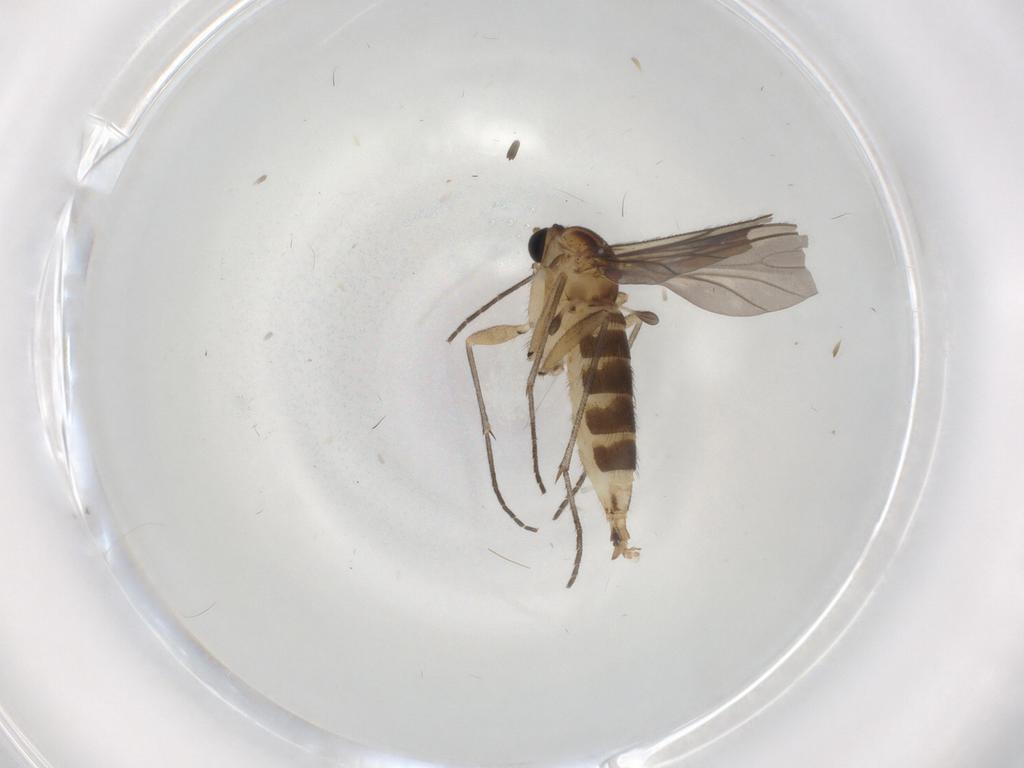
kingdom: Animalia
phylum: Arthropoda
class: Insecta
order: Diptera
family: Sciaridae
